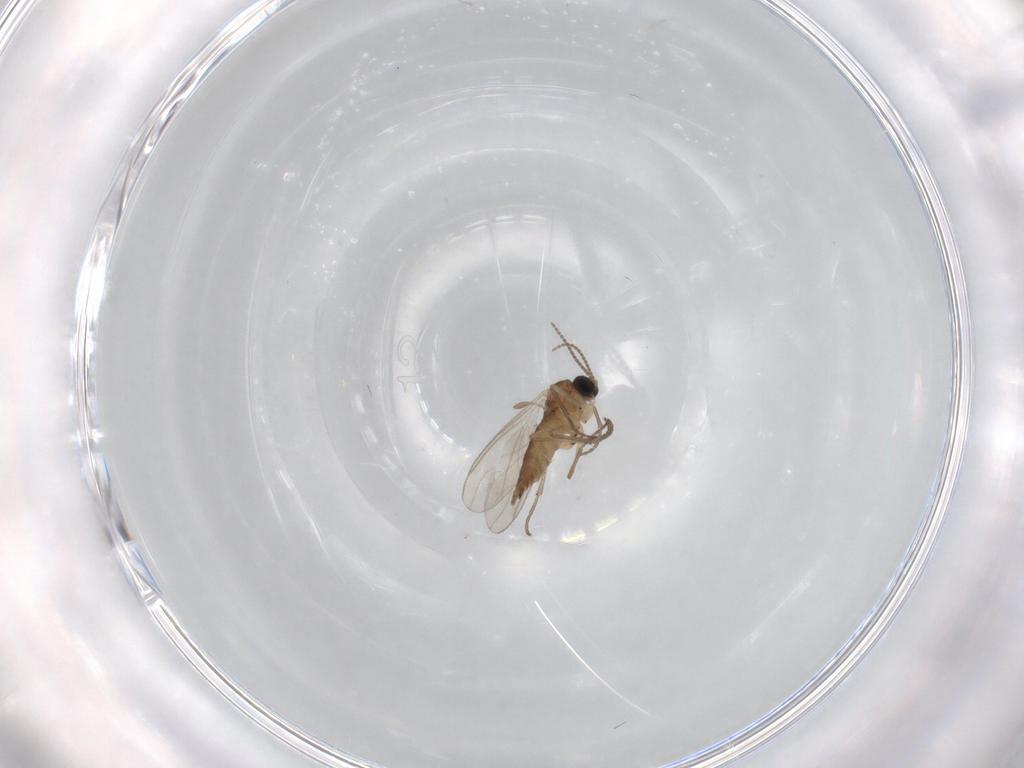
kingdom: Animalia
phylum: Arthropoda
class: Insecta
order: Diptera
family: Sciaridae
